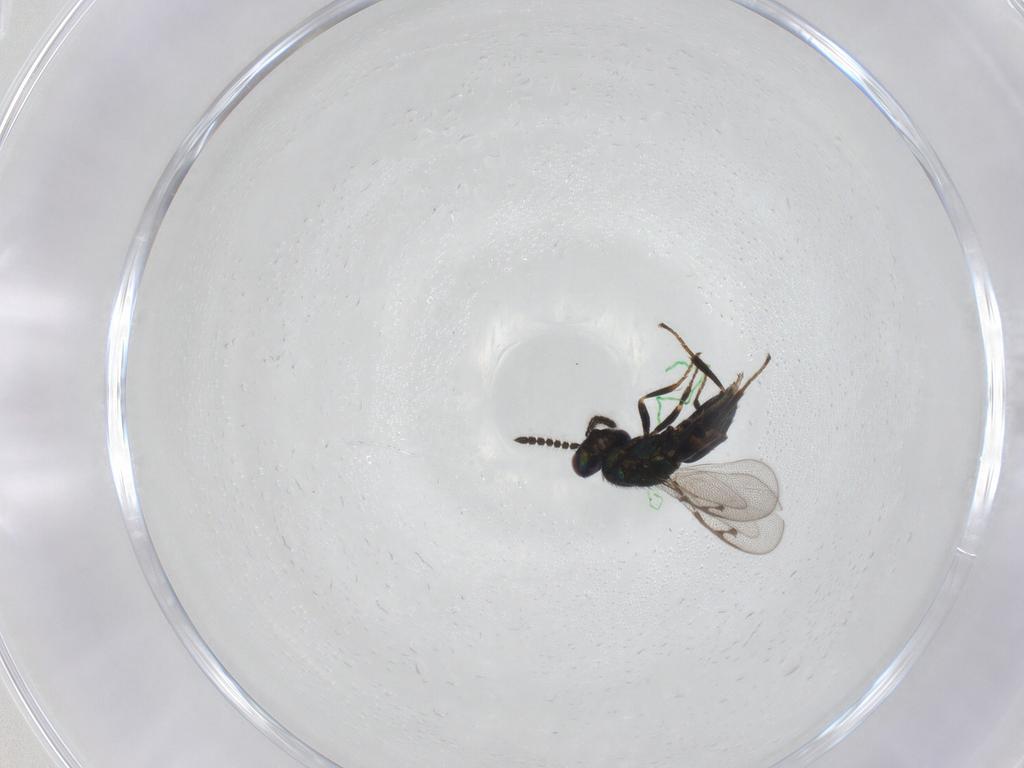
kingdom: Animalia
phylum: Arthropoda
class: Insecta
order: Hymenoptera
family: Pirenidae
